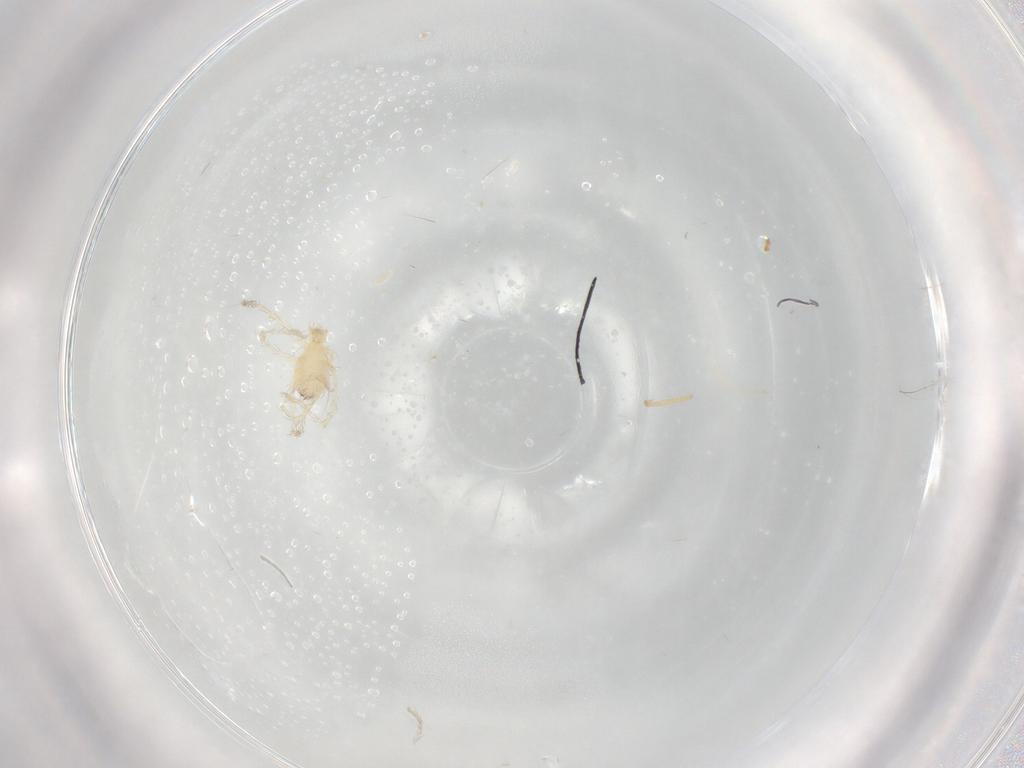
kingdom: Animalia
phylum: Arthropoda
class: Arachnida
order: Trombidiformes
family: Erythraeidae
